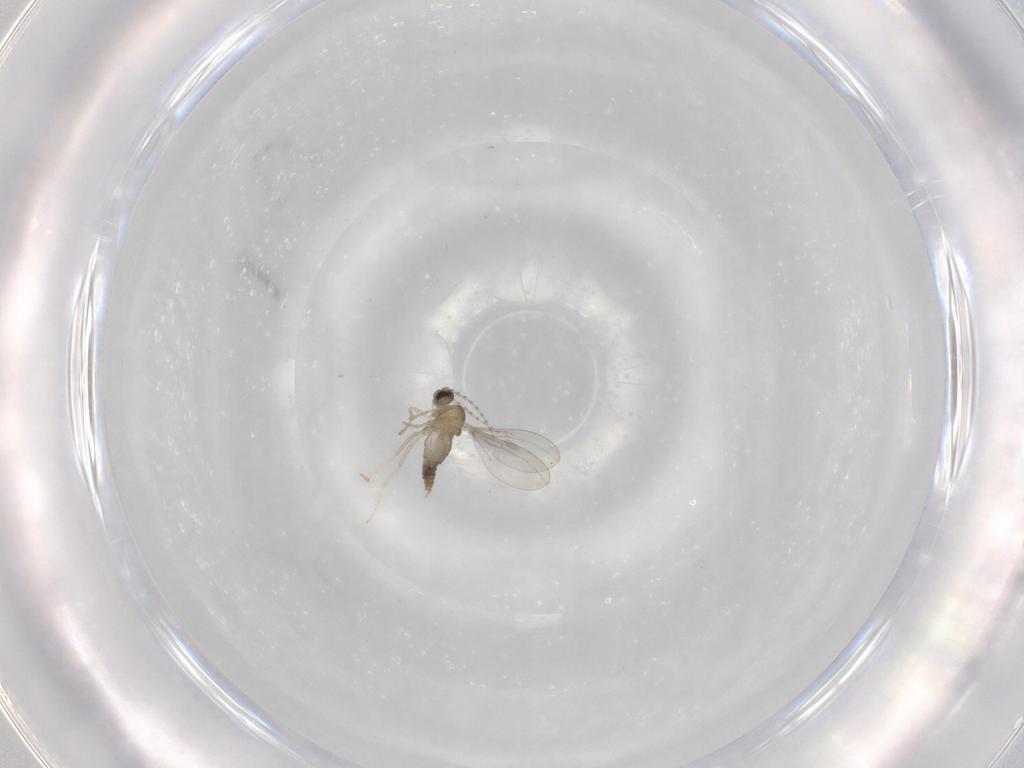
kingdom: Animalia
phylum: Arthropoda
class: Insecta
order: Diptera
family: Cecidomyiidae
